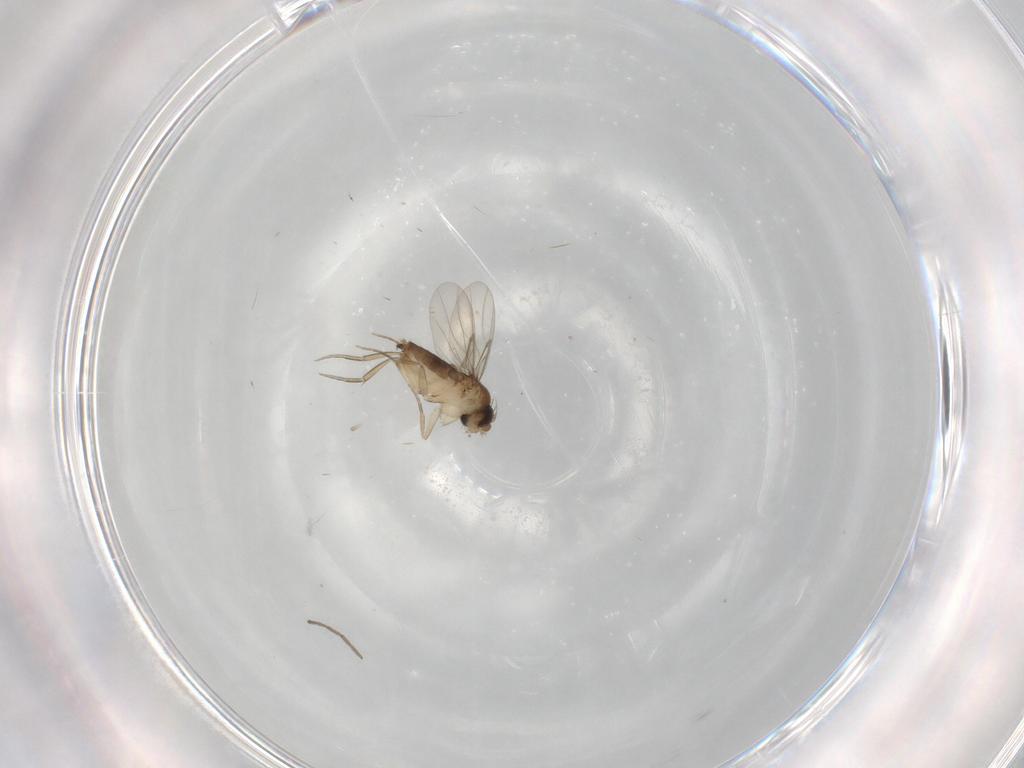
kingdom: Animalia
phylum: Arthropoda
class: Insecta
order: Diptera
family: Phoridae
